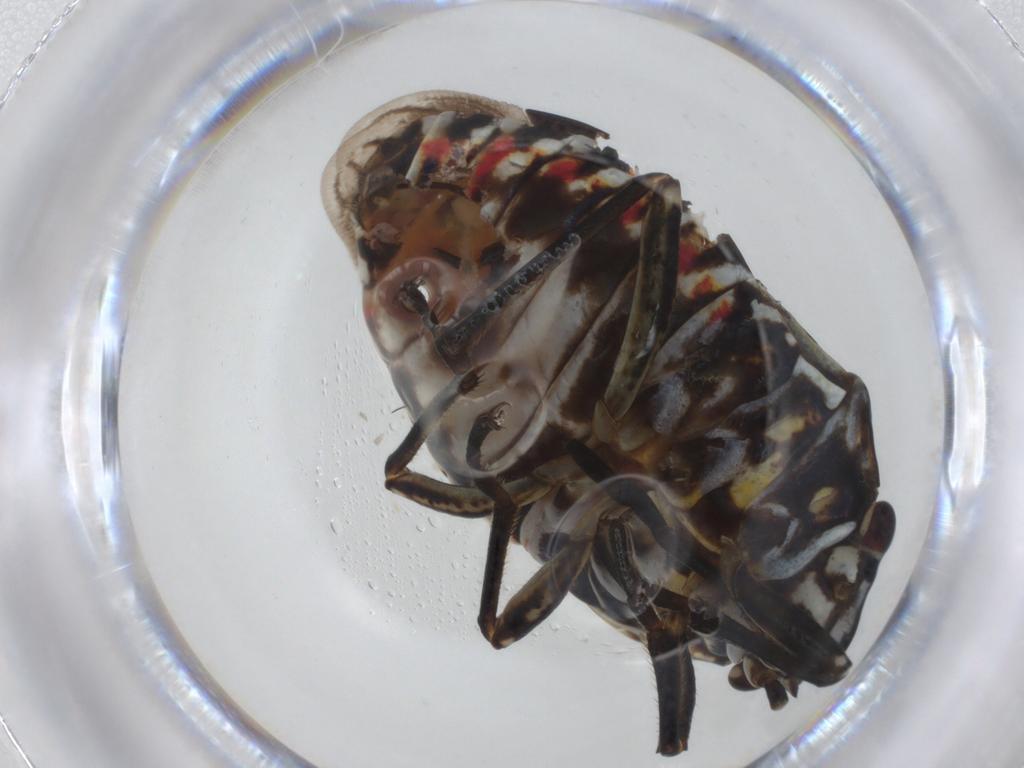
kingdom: Animalia
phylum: Arthropoda
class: Insecta
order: Hemiptera
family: Pentatomidae
